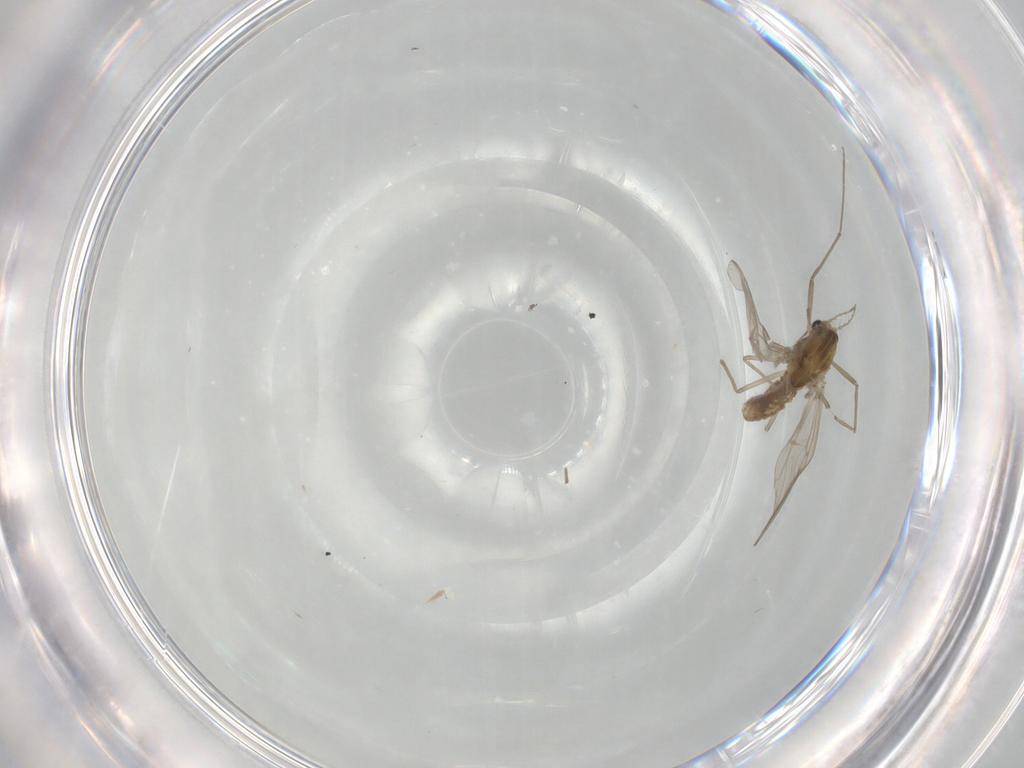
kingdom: Animalia
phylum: Arthropoda
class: Insecta
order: Diptera
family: Chironomidae
